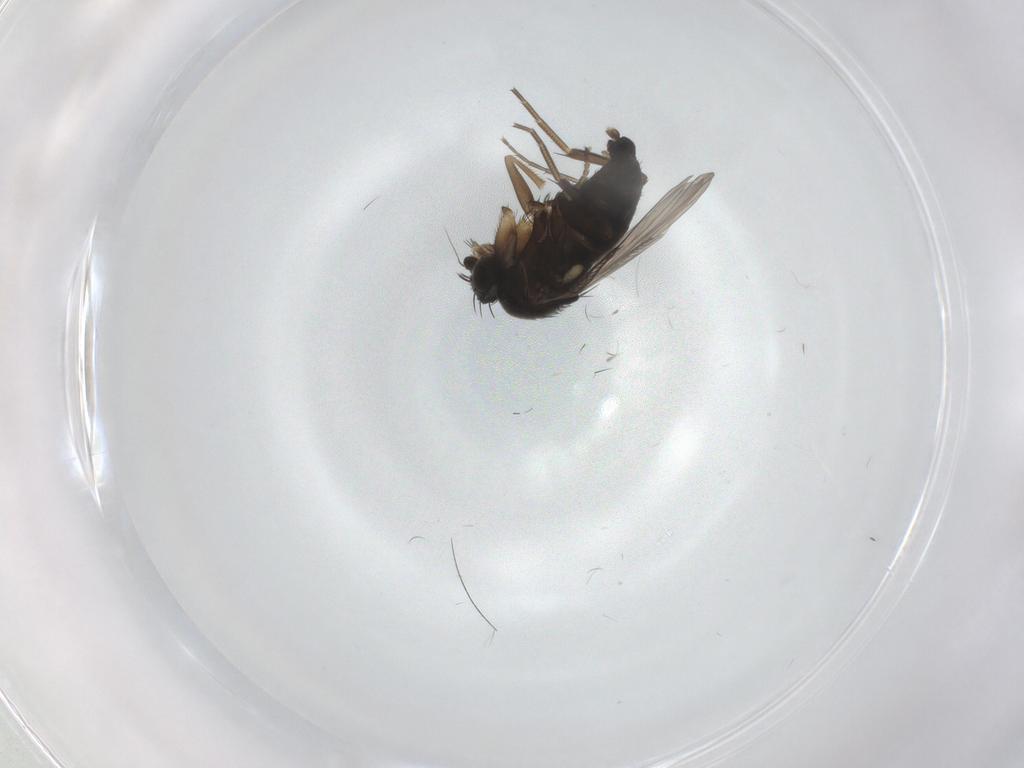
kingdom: Animalia
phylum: Arthropoda
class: Insecta
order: Diptera
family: Phoridae
